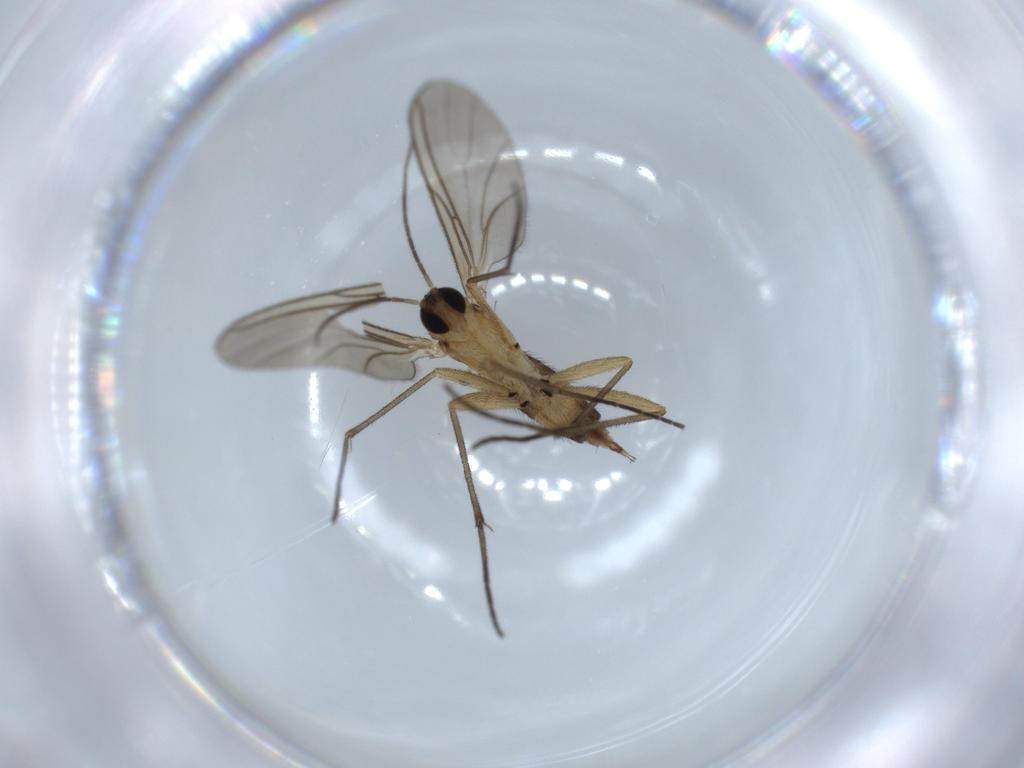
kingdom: Animalia
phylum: Arthropoda
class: Insecta
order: Diptera
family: Sciaridae
